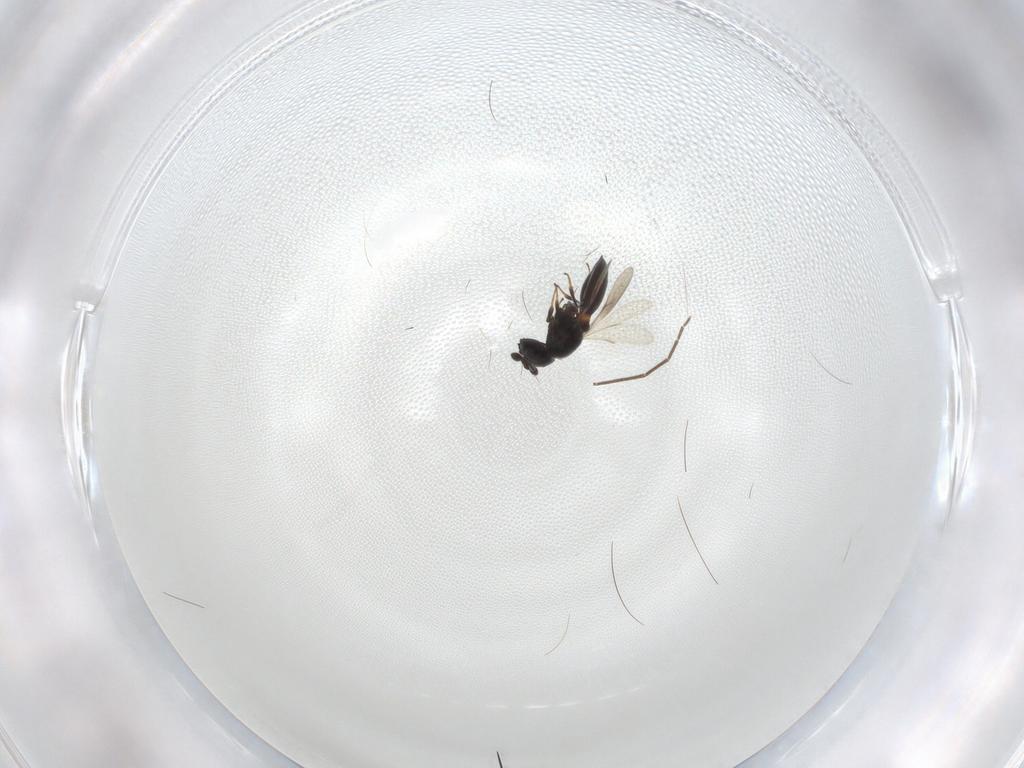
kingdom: Animalia
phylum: Arthropoda
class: Insecta
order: Hymenoptera
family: Scelionidae
